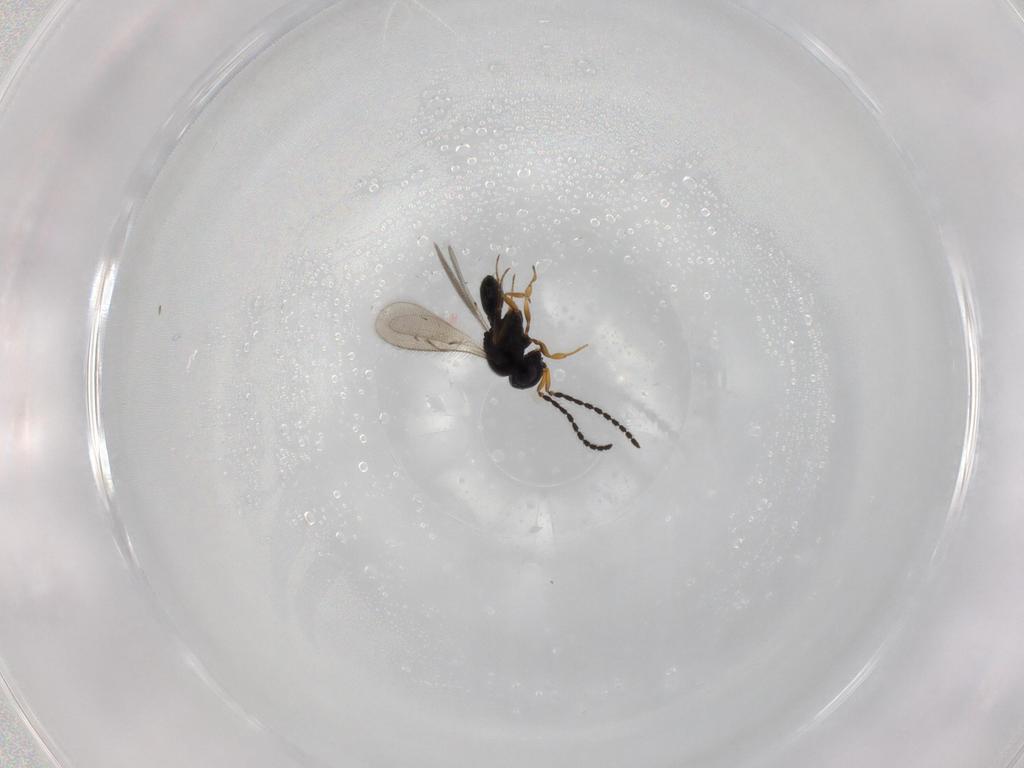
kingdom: Animalia
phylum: Arthropoda
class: Insecta
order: Hymenoptera
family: Scelionidae
